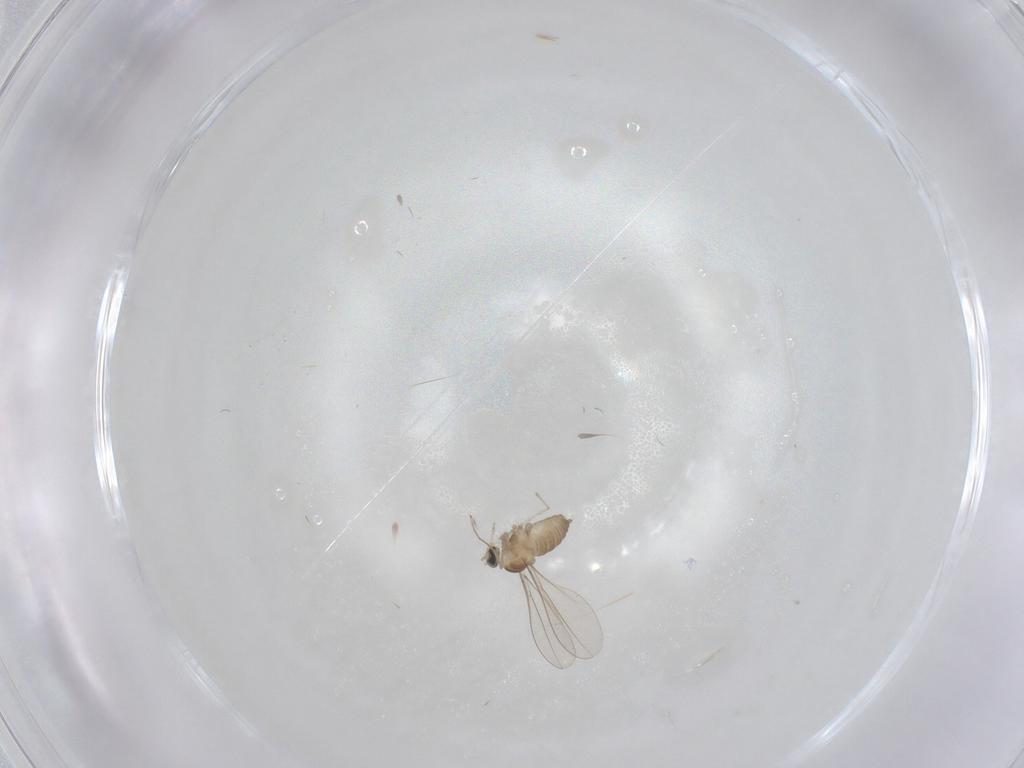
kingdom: Animalia
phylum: Arthropoda
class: Insecta
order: Diptera
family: Cecidomyiidae
